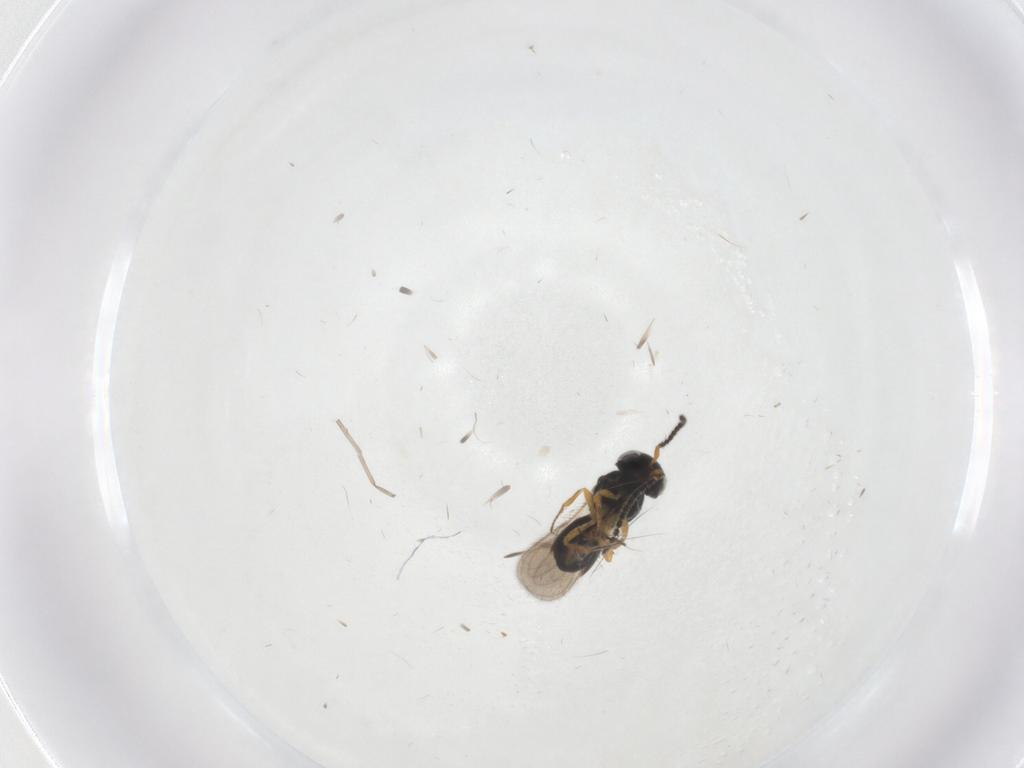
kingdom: Animalia
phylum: Arthropoda
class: Insecta
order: Hymenoptera
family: Scelionidae
